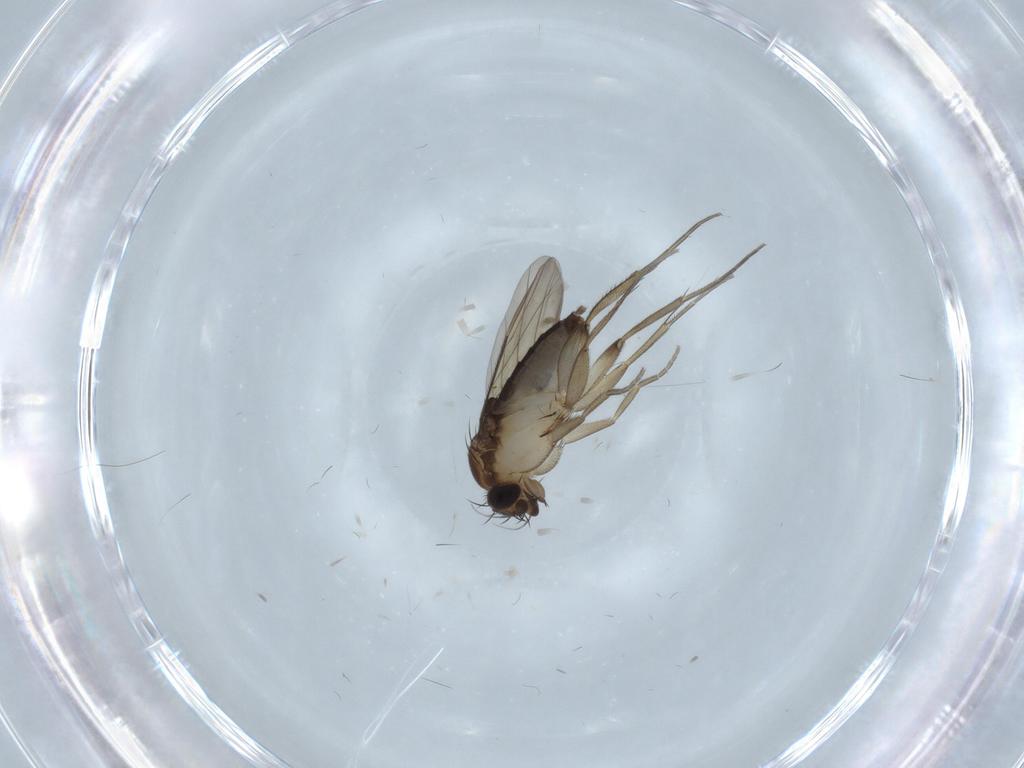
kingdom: Animalia
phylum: Arthropoda
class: Insecta
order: Diptera
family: Phoridae
